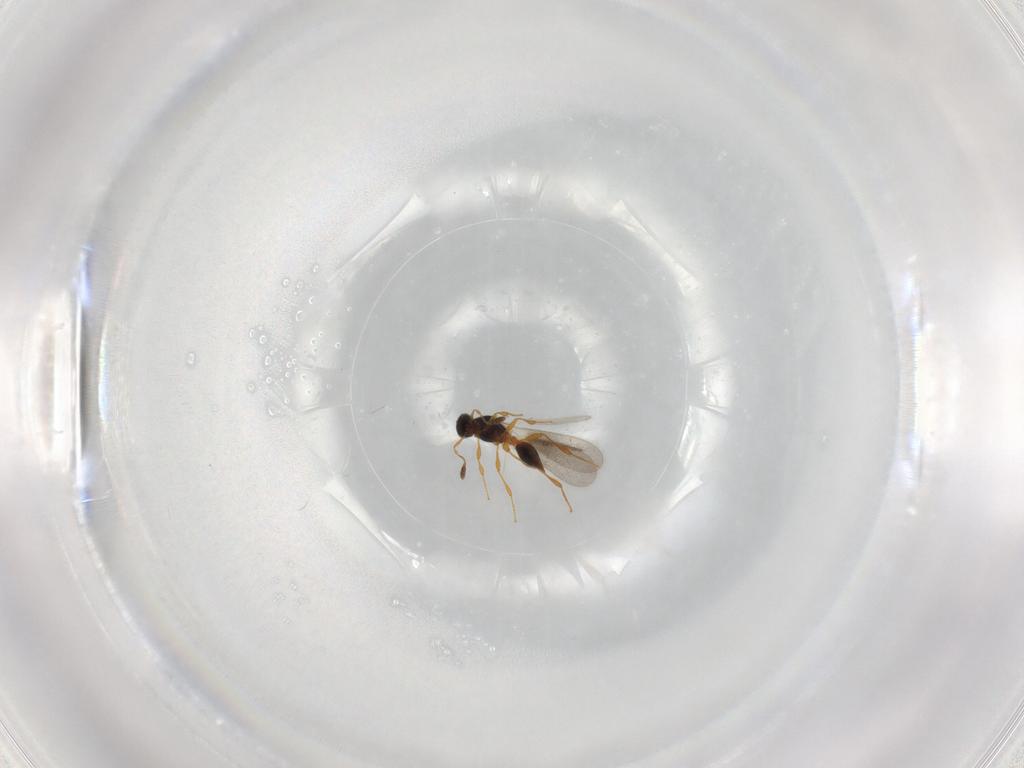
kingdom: Animalia
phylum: Arthropoda
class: Insecta
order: Hymenoptera
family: Platygastridae
